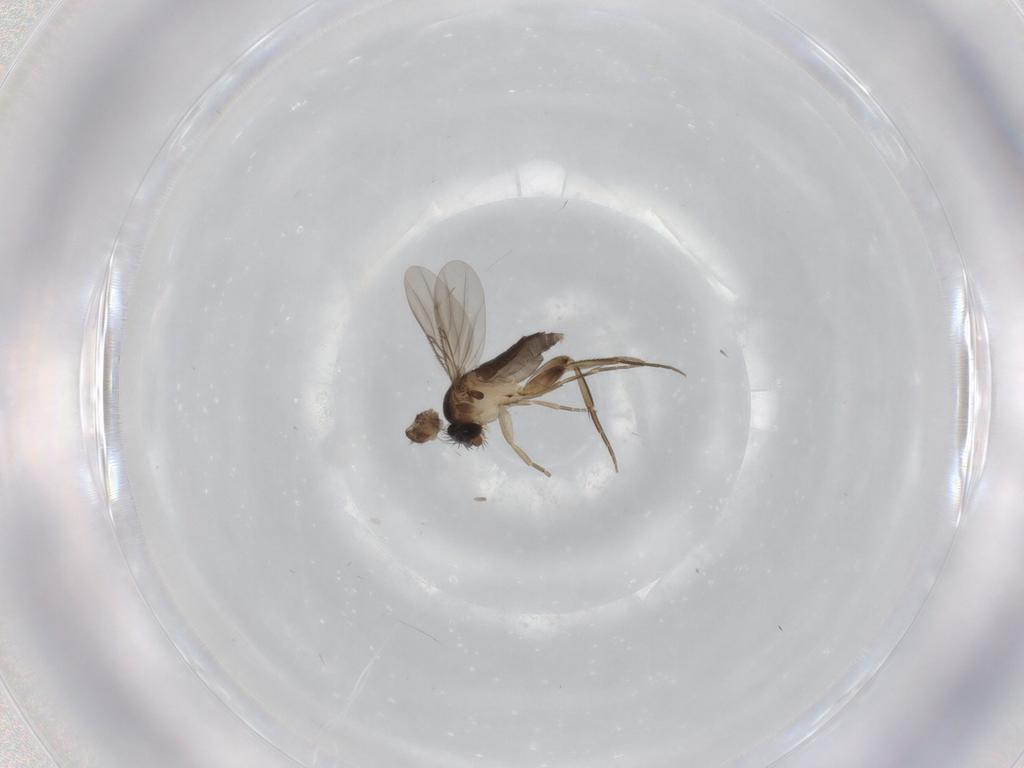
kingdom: Animalia
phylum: Arthropoda
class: Insecta
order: Diptera
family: Phoridae
